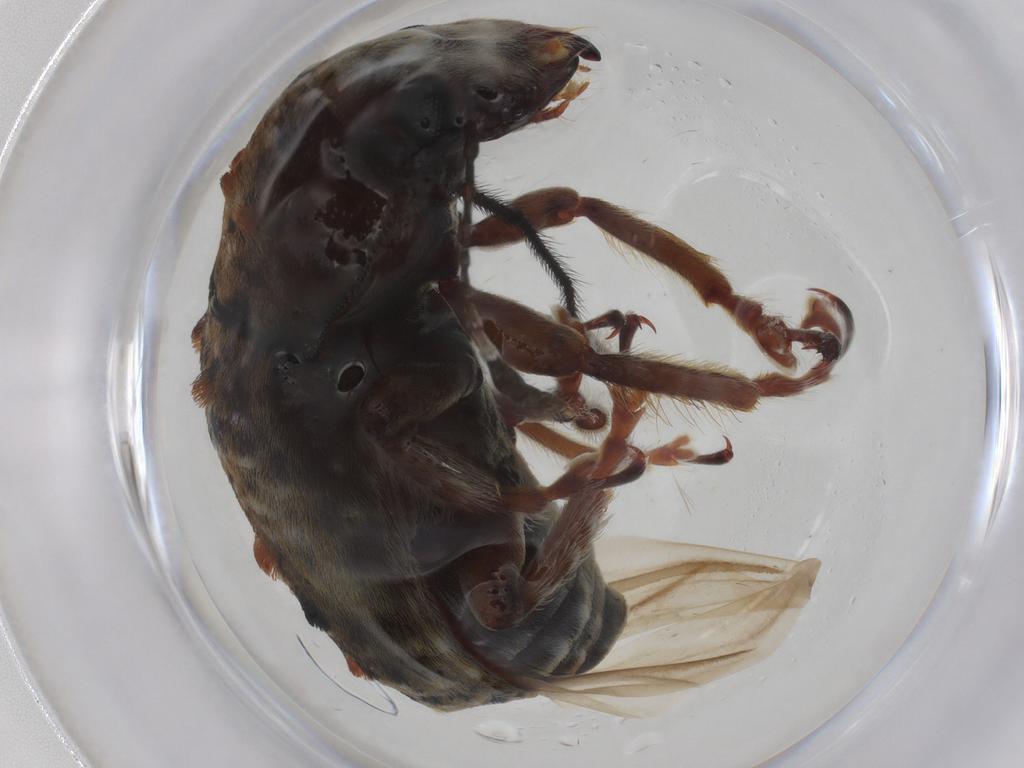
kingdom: Animalia
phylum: Arthropoda
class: Insecta
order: Coleoptera
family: Anthribidae
